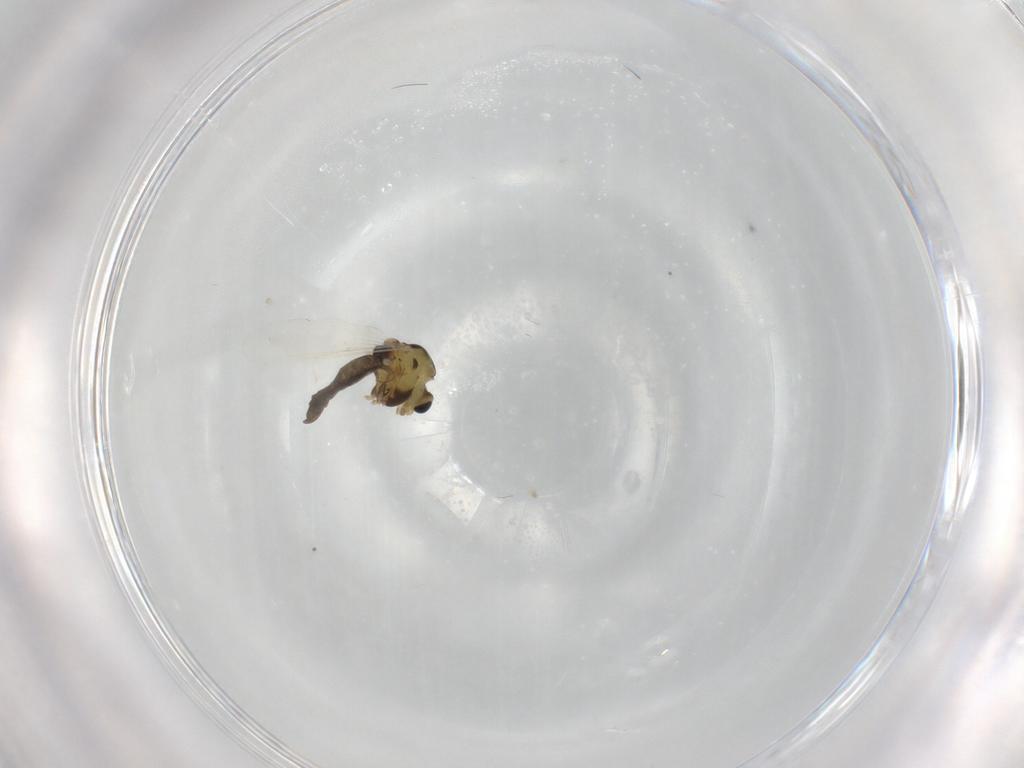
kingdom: Animalia
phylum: Arthropoda
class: Insecta
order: Diptera
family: Chironomidae
